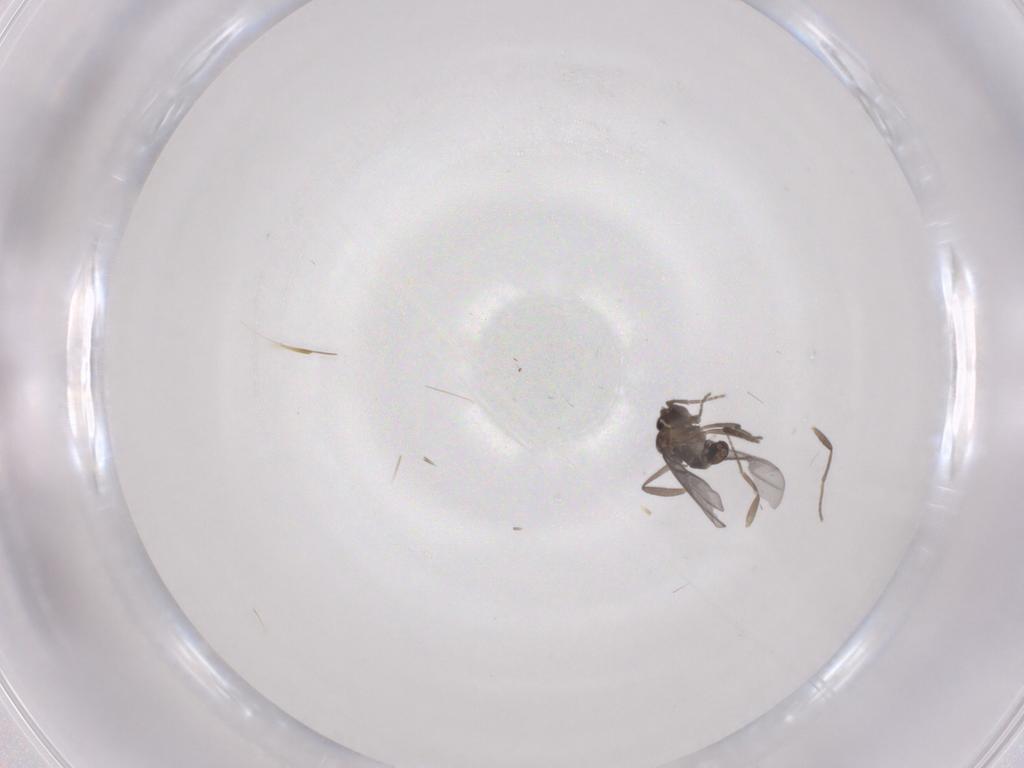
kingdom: Animalia
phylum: Arthropoda
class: Insecta
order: Diptera
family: Chironomidae
